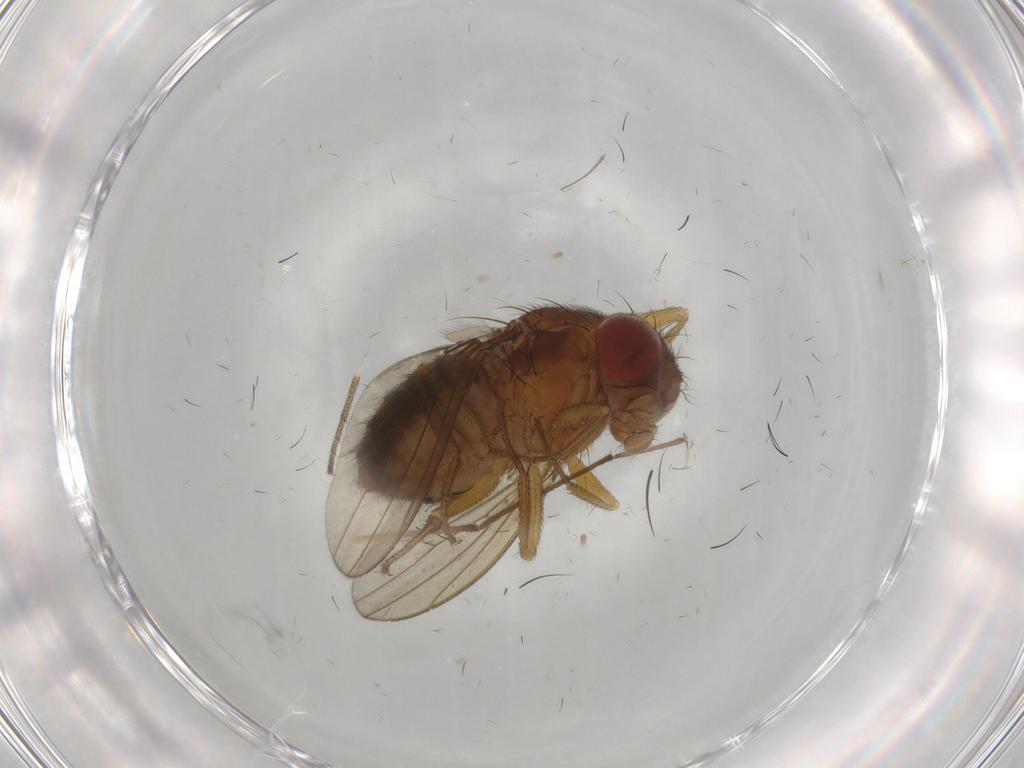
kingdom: Animalia
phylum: Arthropoda
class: Insecta
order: Diptera
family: Drosophilidae
